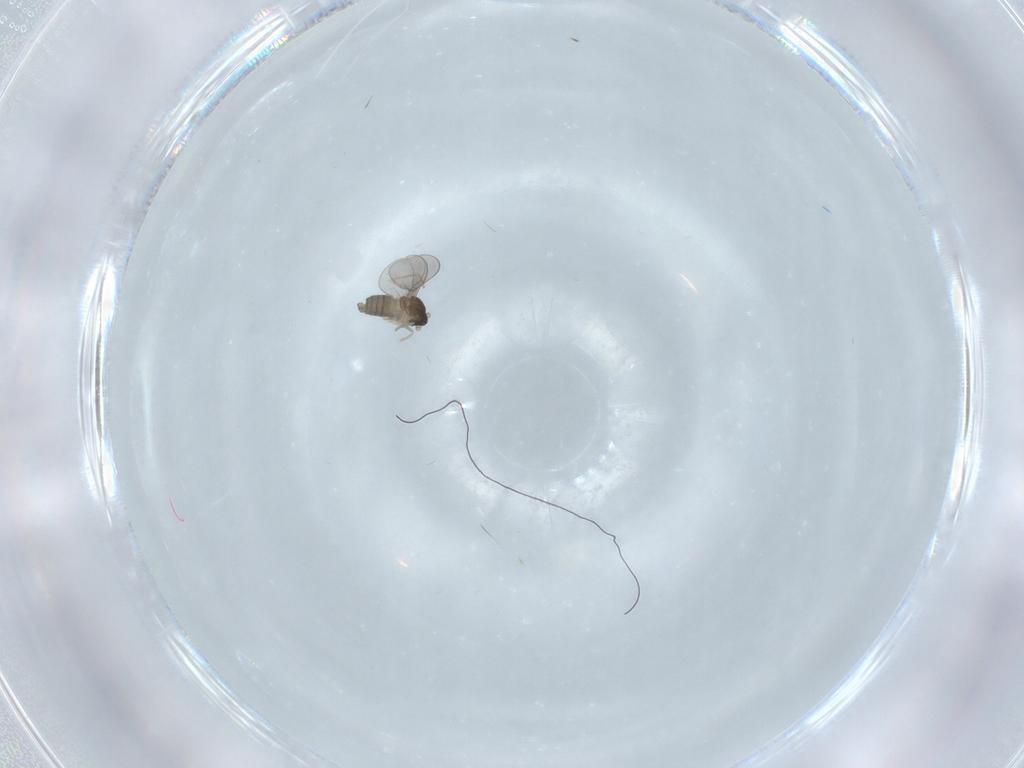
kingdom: Animalia
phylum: Arthropoda
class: Insecta
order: Diptera
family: Cecidomyiidae
